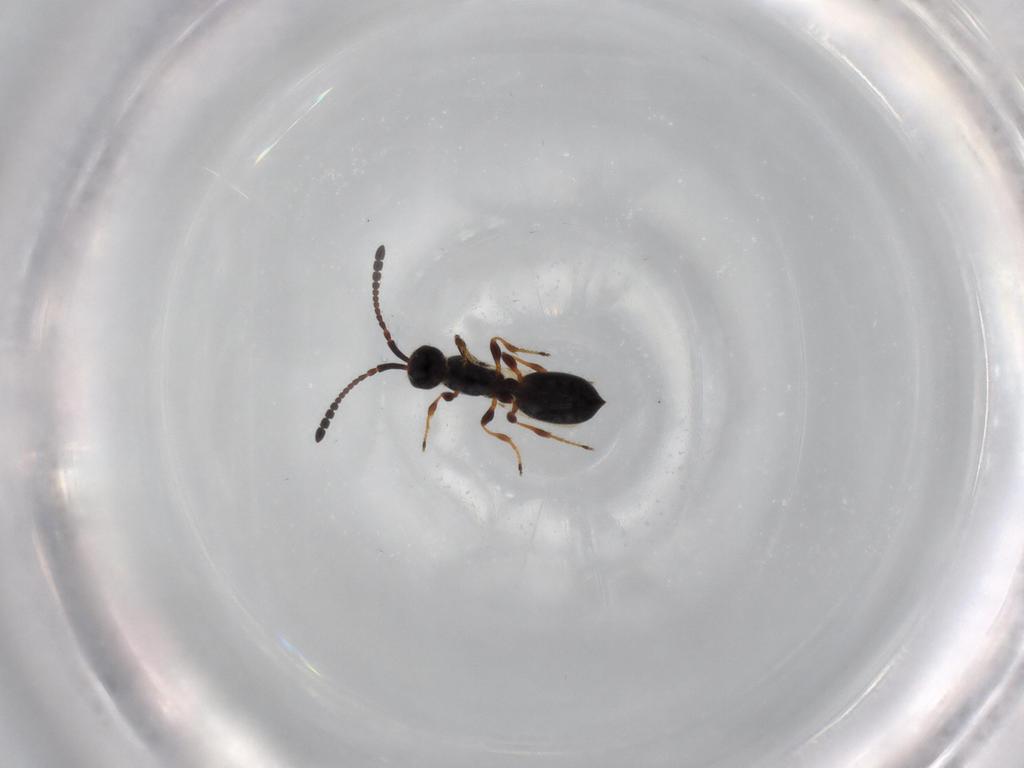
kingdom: Animalia
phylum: Arthropoda
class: Insecta
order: Hymenoptera
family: Diapriidae
